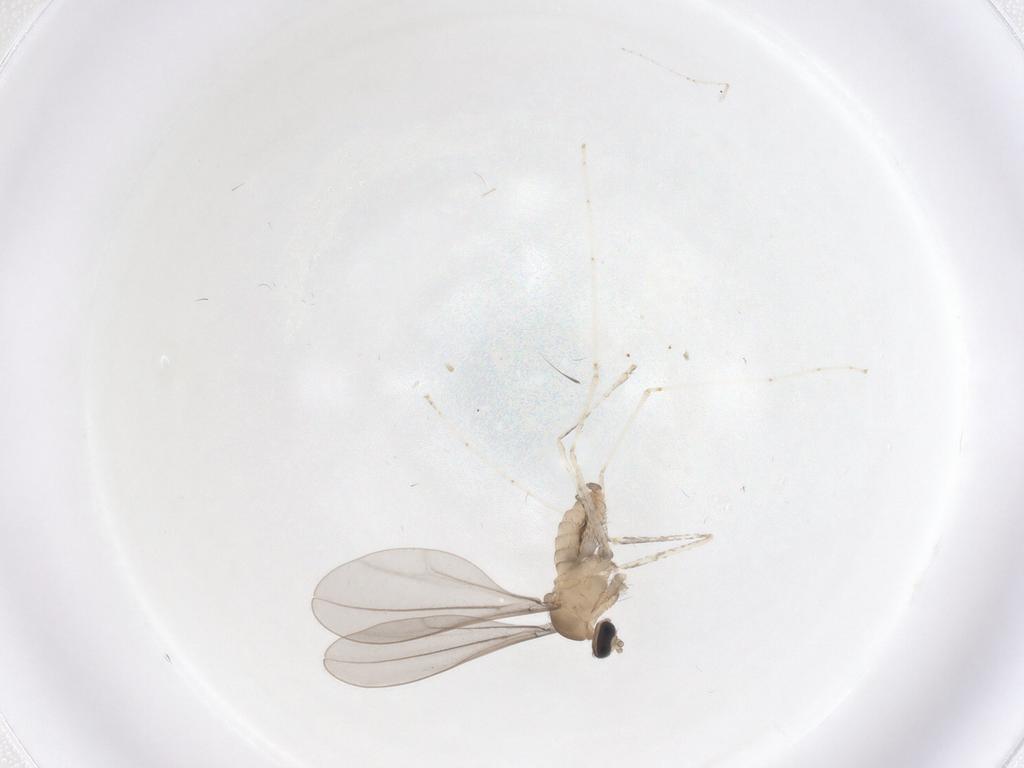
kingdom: Animalia
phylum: Arthropoda
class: Insecta
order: Diptera
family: Cecidomyiidae
